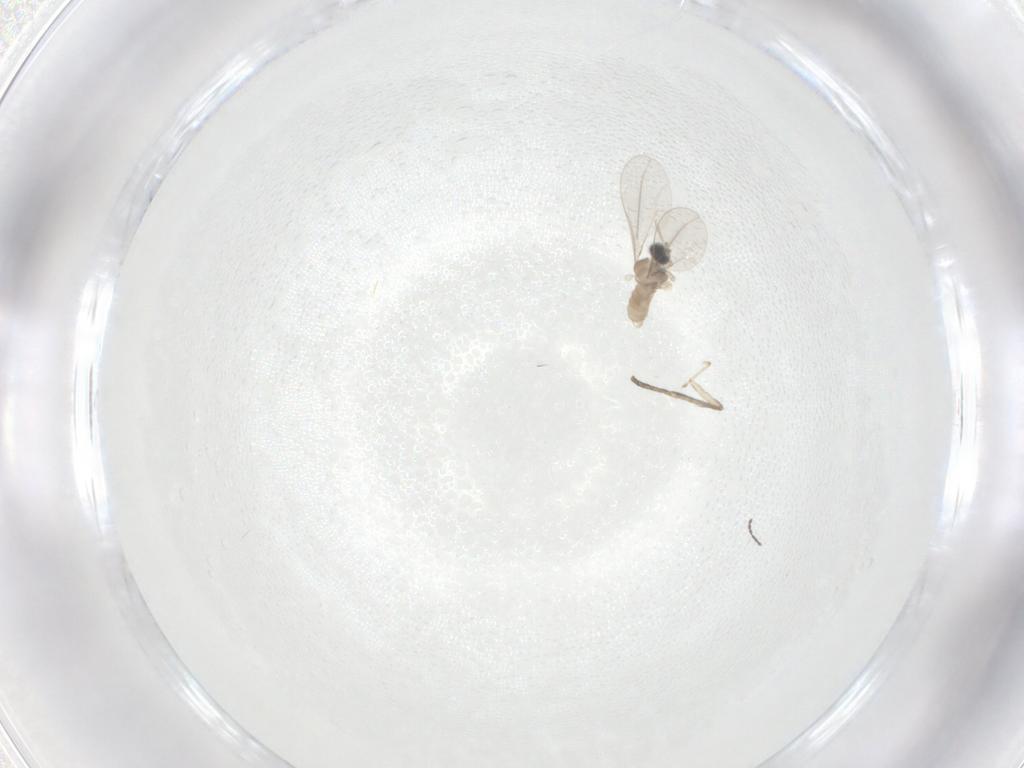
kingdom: Animalia
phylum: Arthropoda
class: Insecta
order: Diptera
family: Cecidomyiidae
